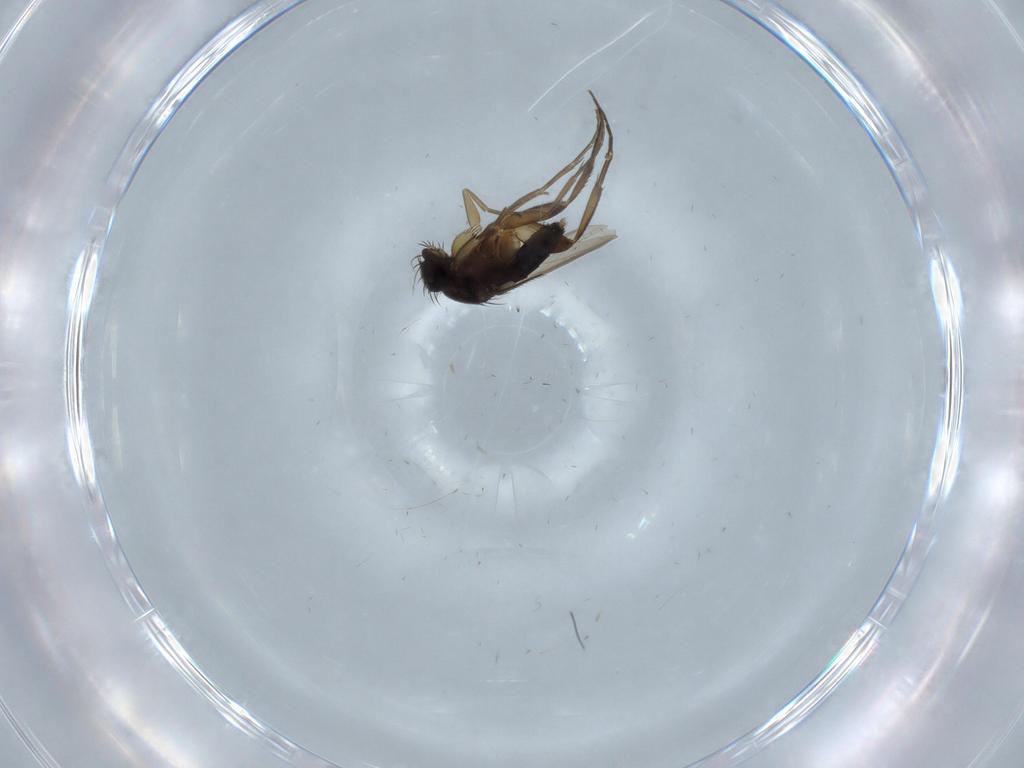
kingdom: Animalia
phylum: Arthropoda
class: Insecta
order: Diptera
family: Phoridae
